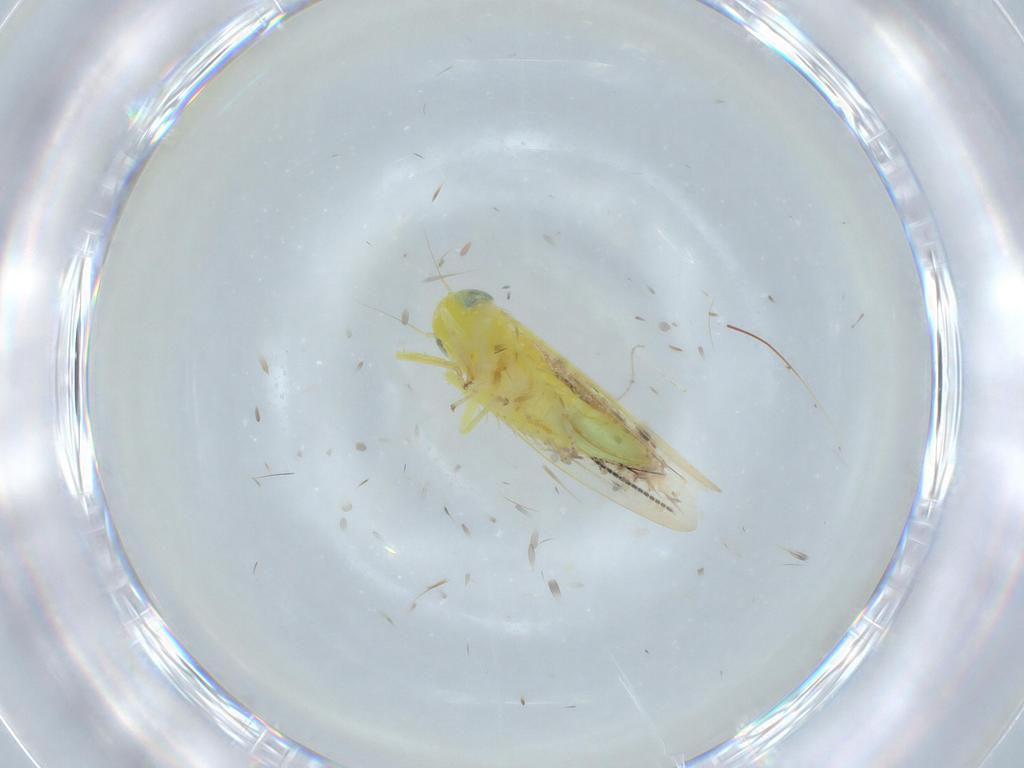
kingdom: Animalia
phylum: Arthropoda
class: Insecta
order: Hemiptera
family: Cicadellidae
